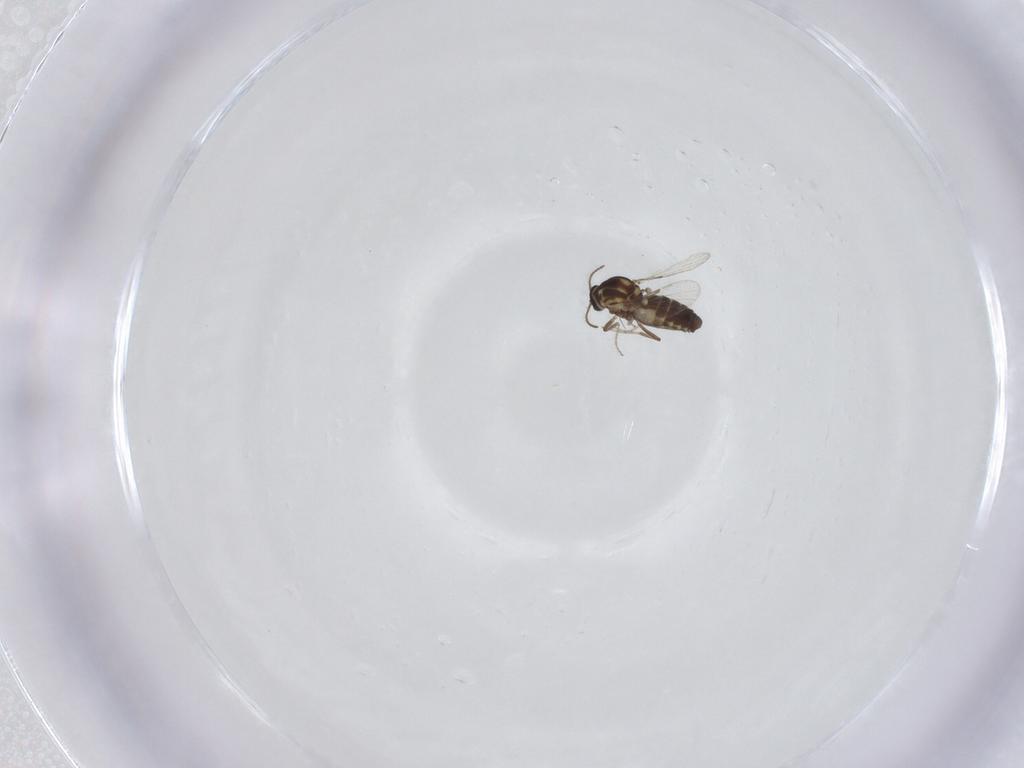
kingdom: Animalia
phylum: Arthropoda
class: Insecta
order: Diptera
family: Ceratopogonidae
